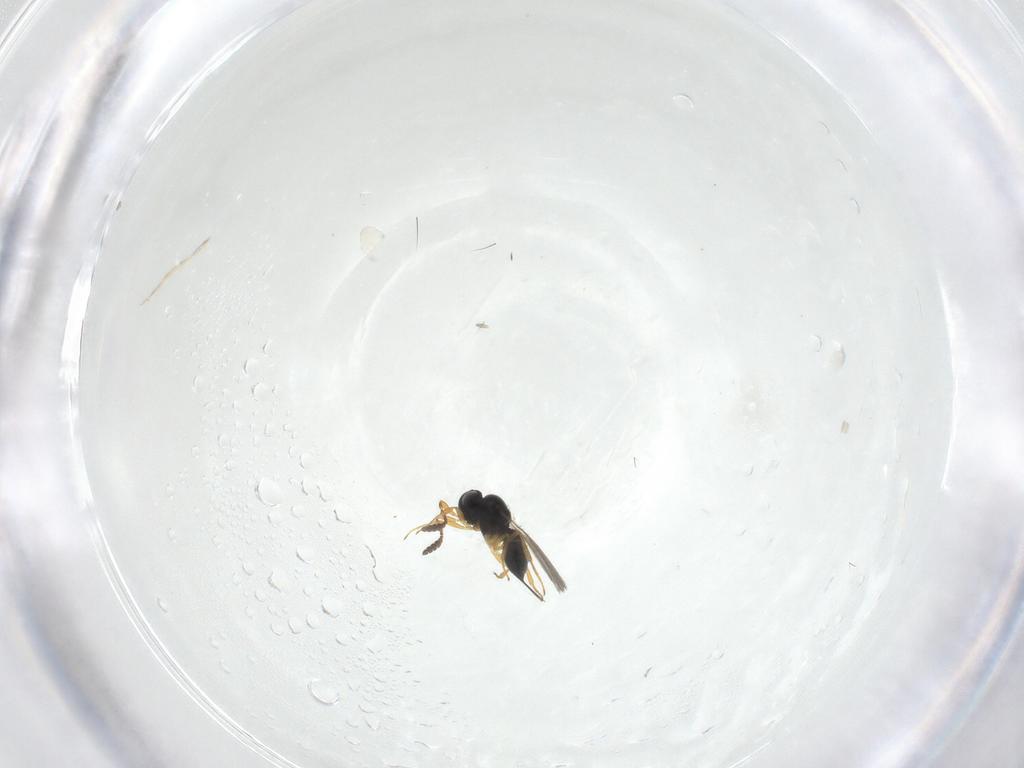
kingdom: Animalia
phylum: Arthropoda
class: Insecta
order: Hymenoptera
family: Scelionidae
